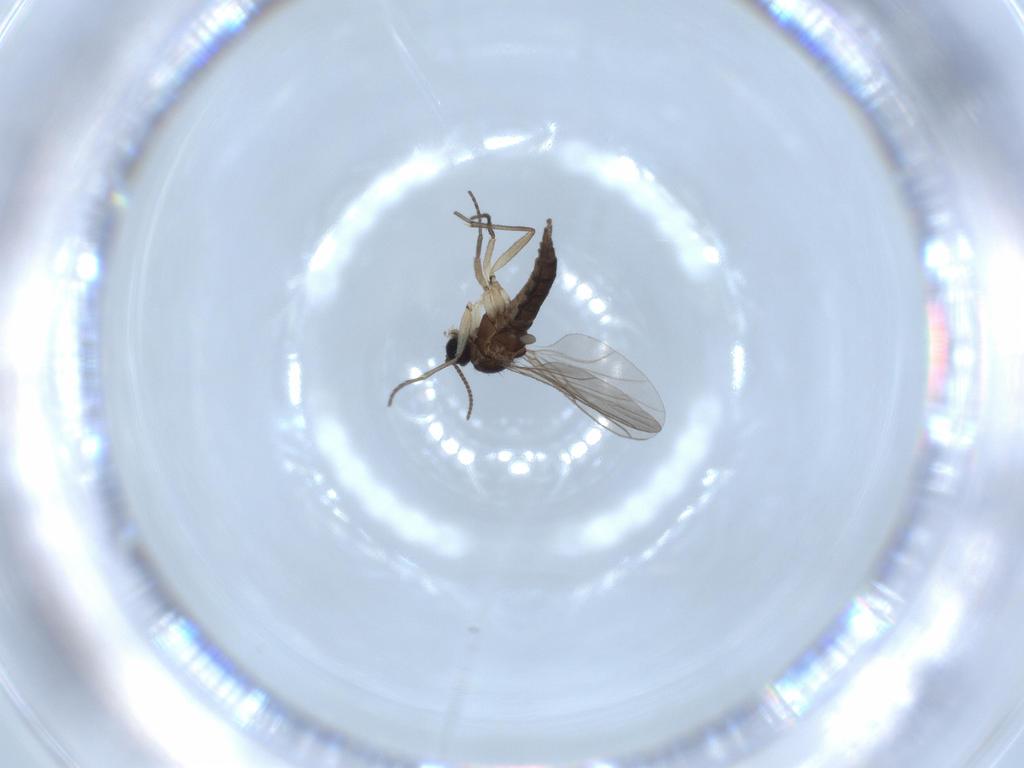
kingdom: Animalia
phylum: Arthropoda
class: Insecta
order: Diptera
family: Sciaridae
